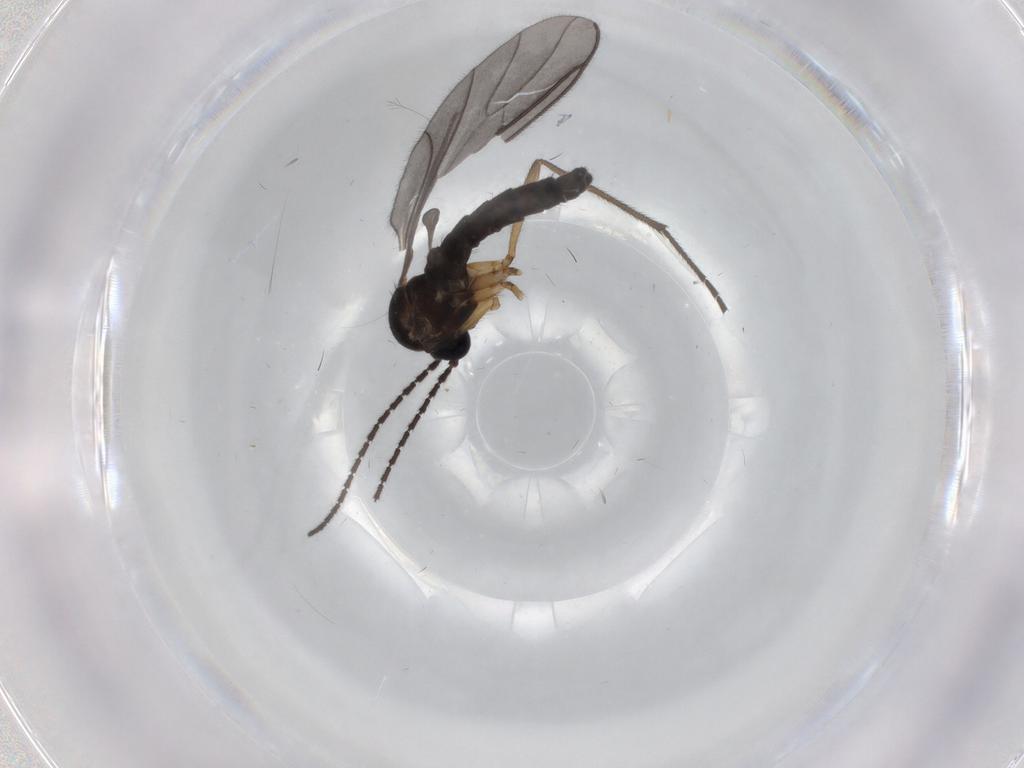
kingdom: Animalia
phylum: Arthropoda
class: Insecta
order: Diptera
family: Sciaridae
